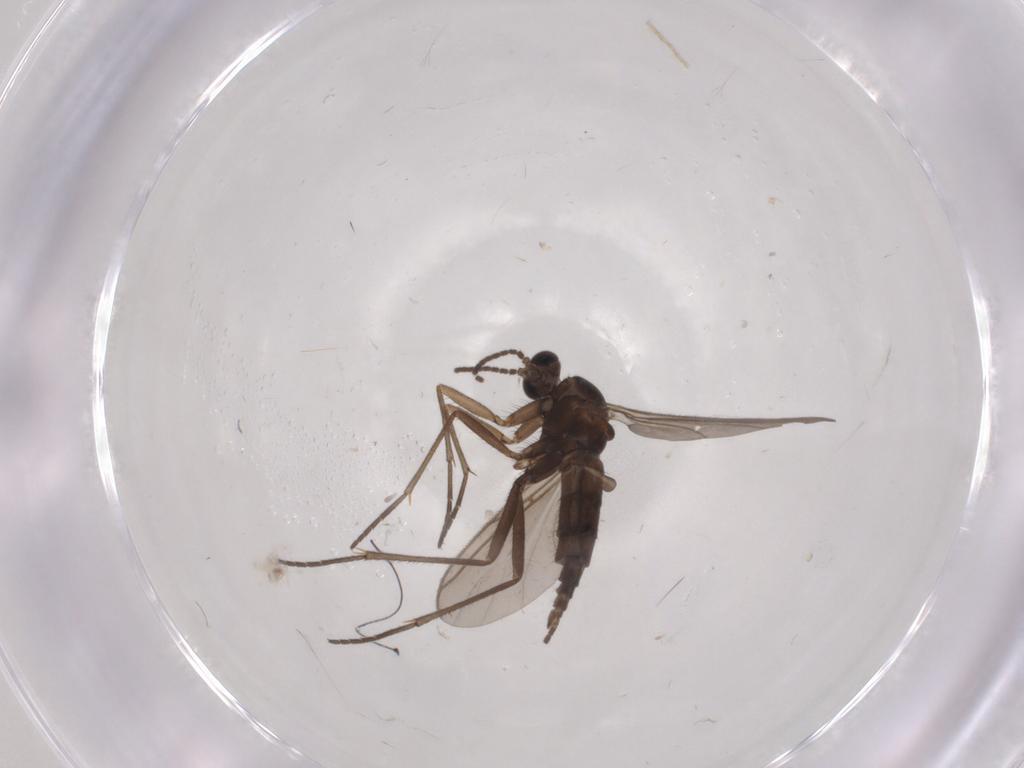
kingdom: Animalia
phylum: Arthropoda
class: Insecta
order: Diptera
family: Sciaridae
